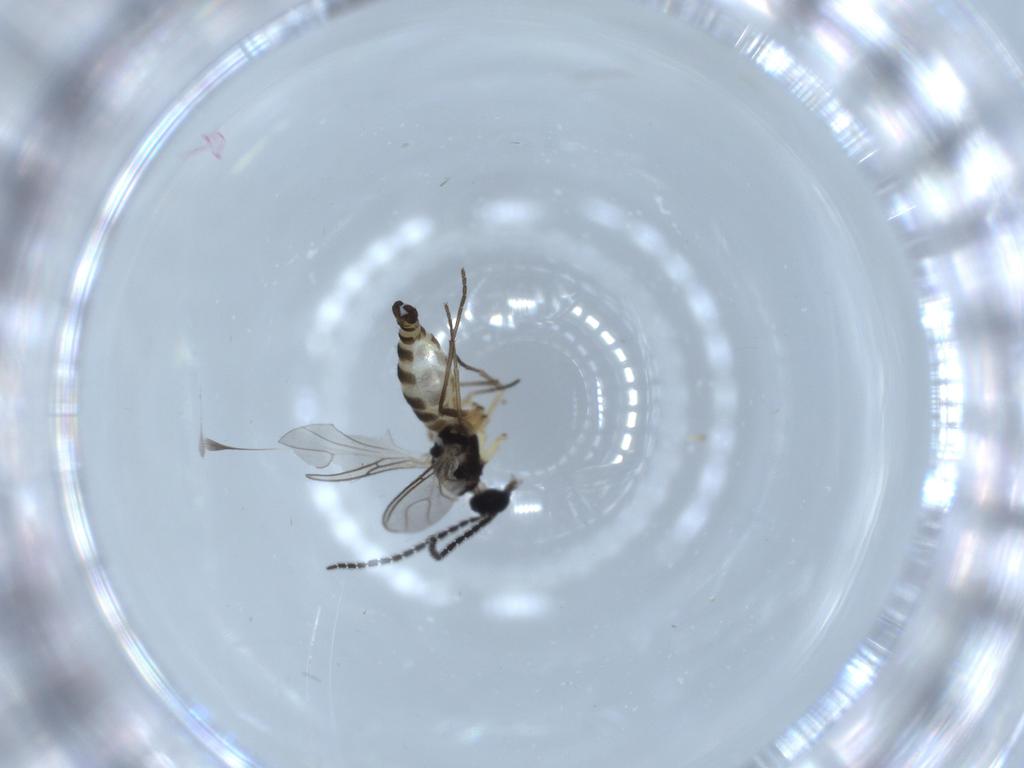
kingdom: Animalia
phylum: Arthropoda
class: Insecta
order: Diptera
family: Sciaridae
